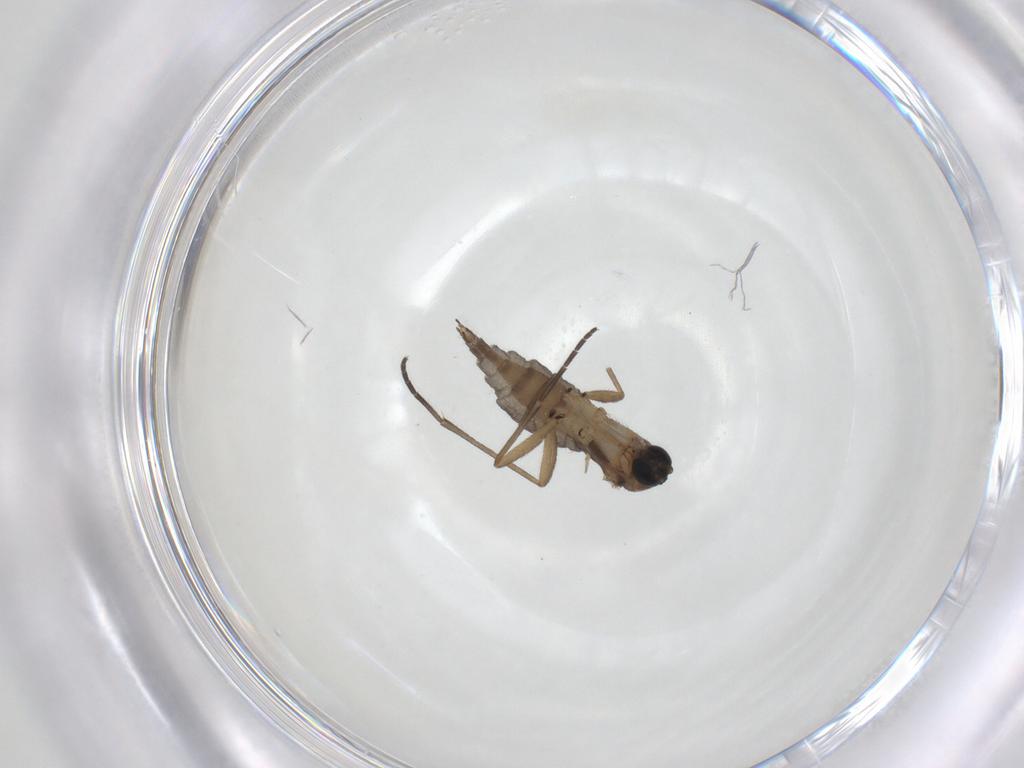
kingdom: Animalia
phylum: Arthropoda
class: Insecta
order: Diptera
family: Sciaridae
